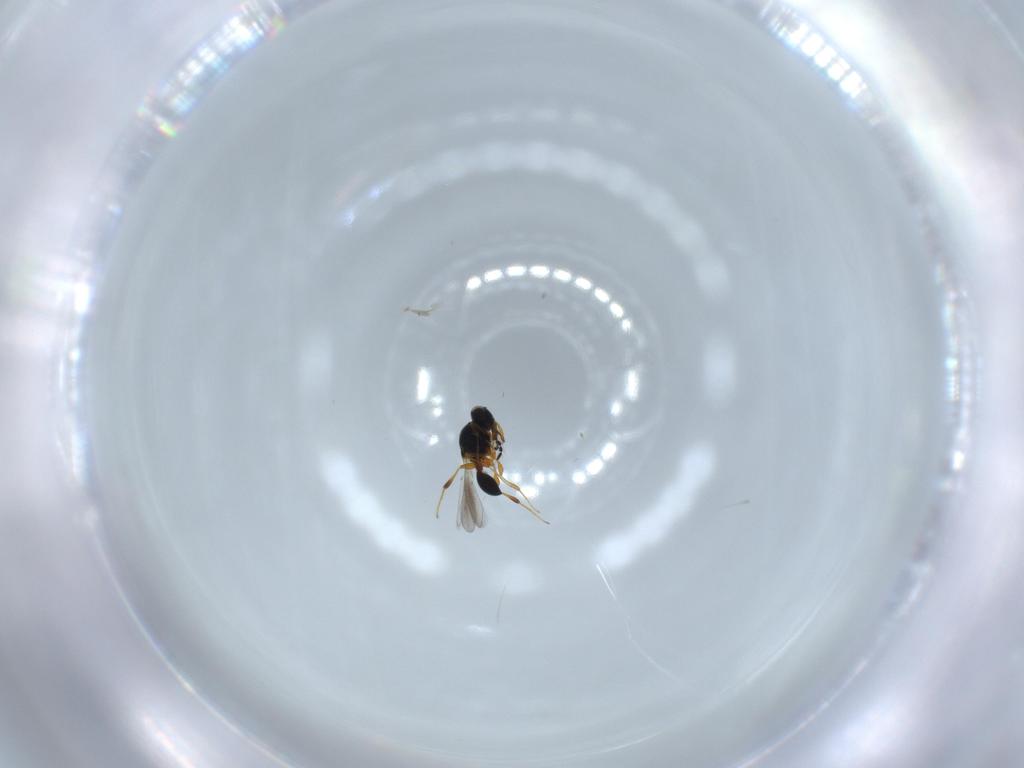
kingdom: Animalia
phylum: Arthropoda
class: Insecta
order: Hymenoptera
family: Platygastridae
